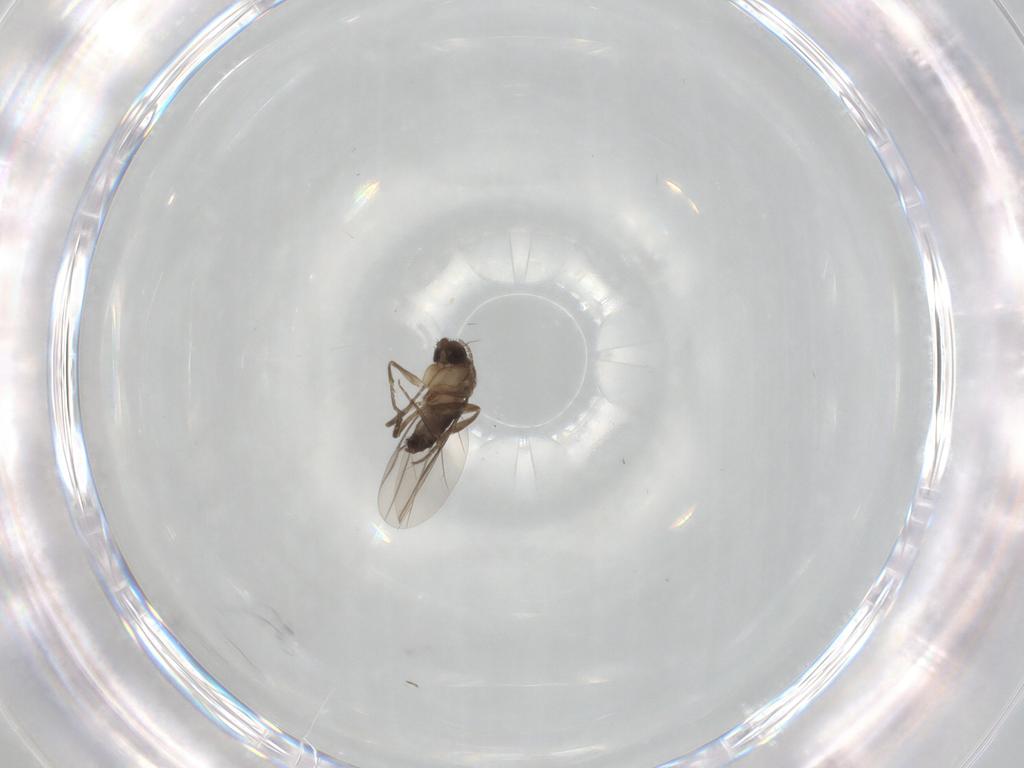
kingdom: Animalia
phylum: Arthropoda
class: Insecta
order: Diptera
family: Phoridae
